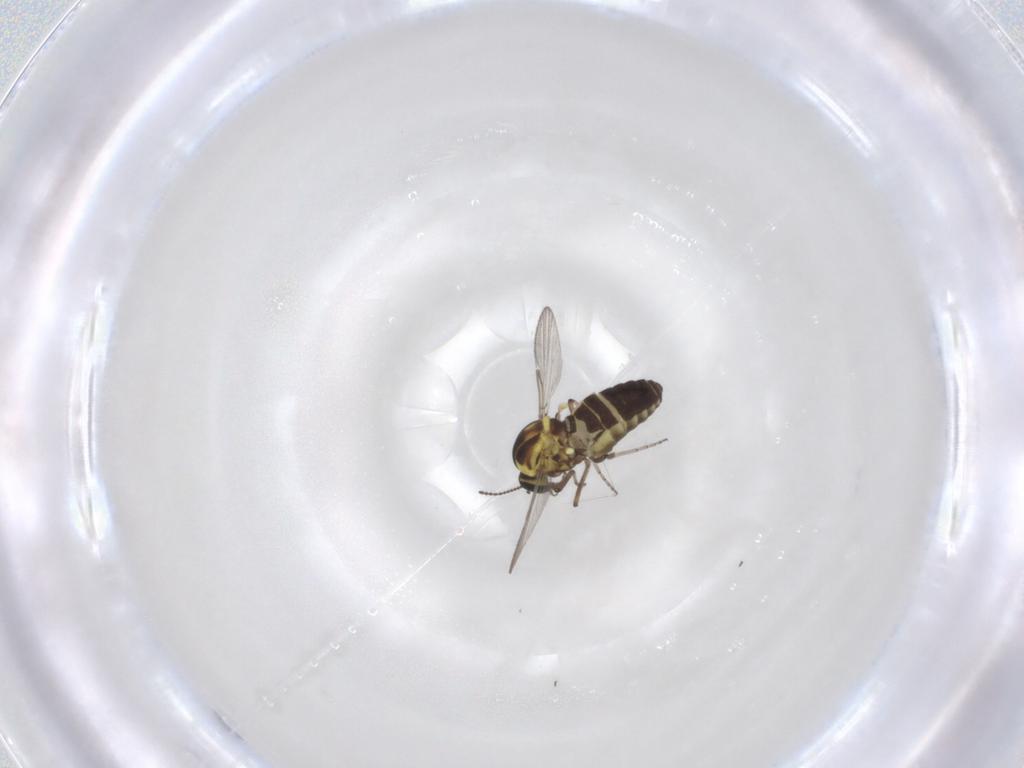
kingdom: Animalia
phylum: Arthropoda
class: Insecta
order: Diptera
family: Ceratopogonidae
